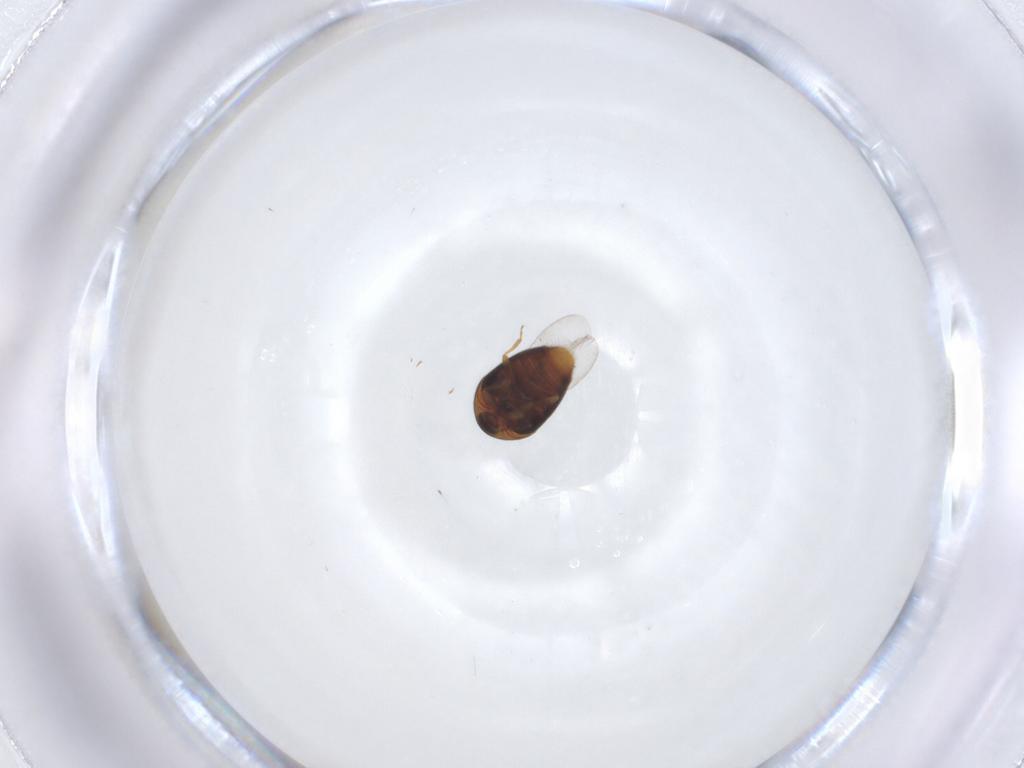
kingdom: Animalia
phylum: Arthropoda
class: Insecta
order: Coleoptera
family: Corylophidae
